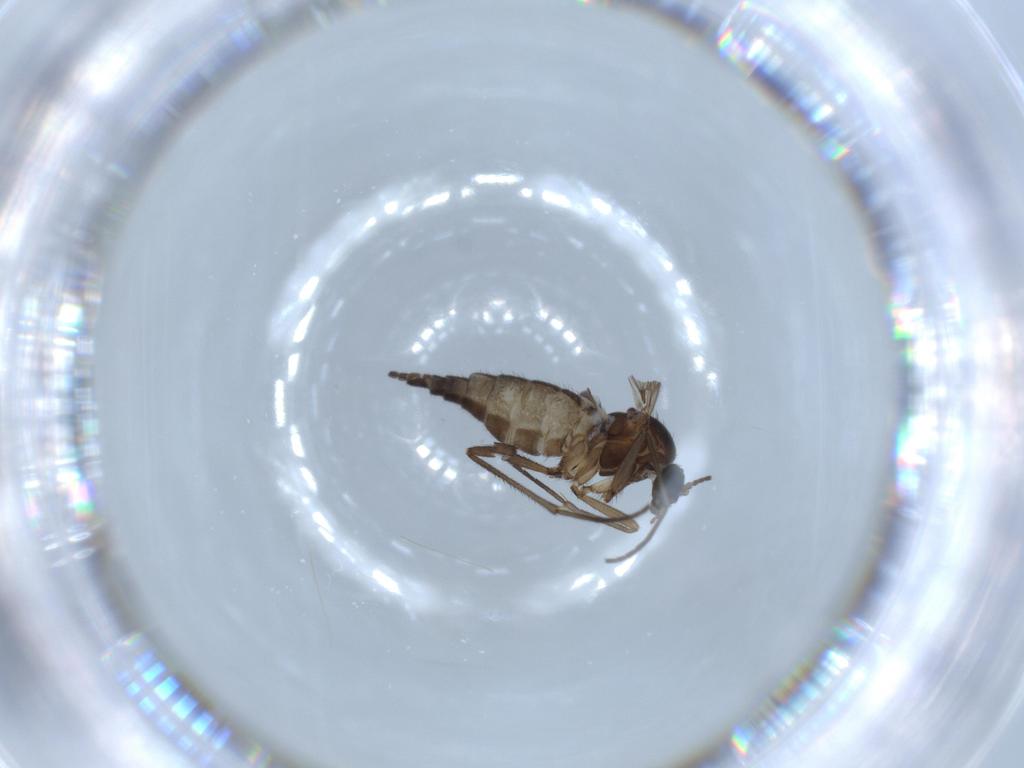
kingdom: Animalia
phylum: Arthropoda
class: Insecta
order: Diptera
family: Sciaridae
